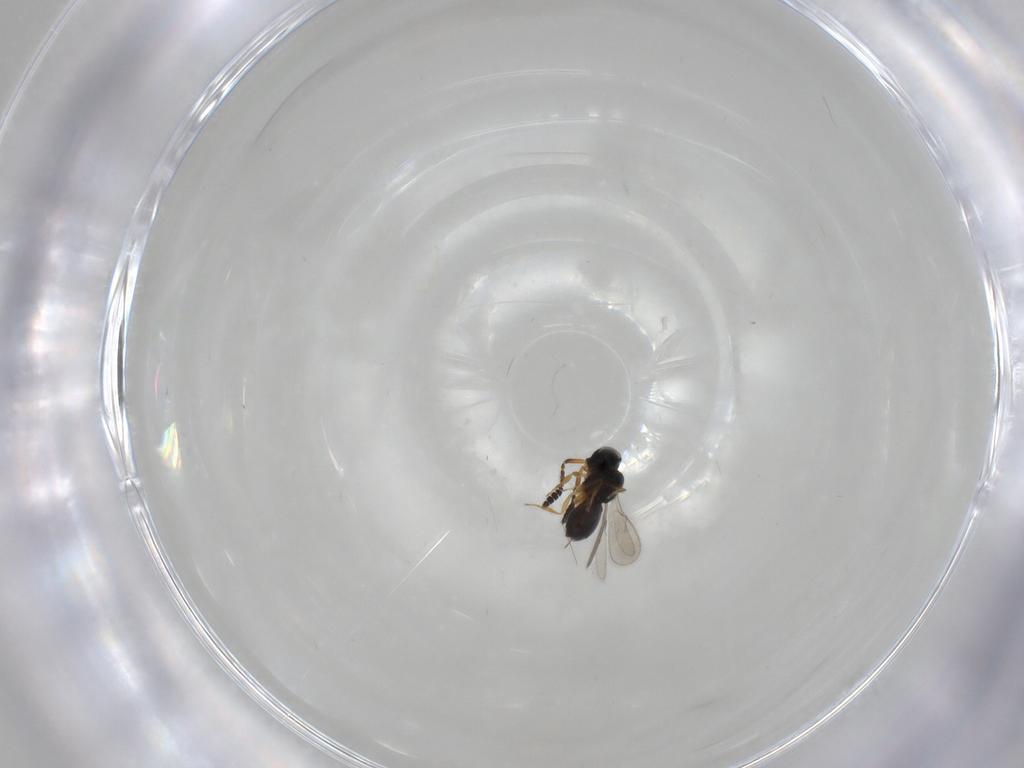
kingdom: Animalia
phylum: Arthropoda
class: Insecta
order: Hymenoptera
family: Scelionidae
